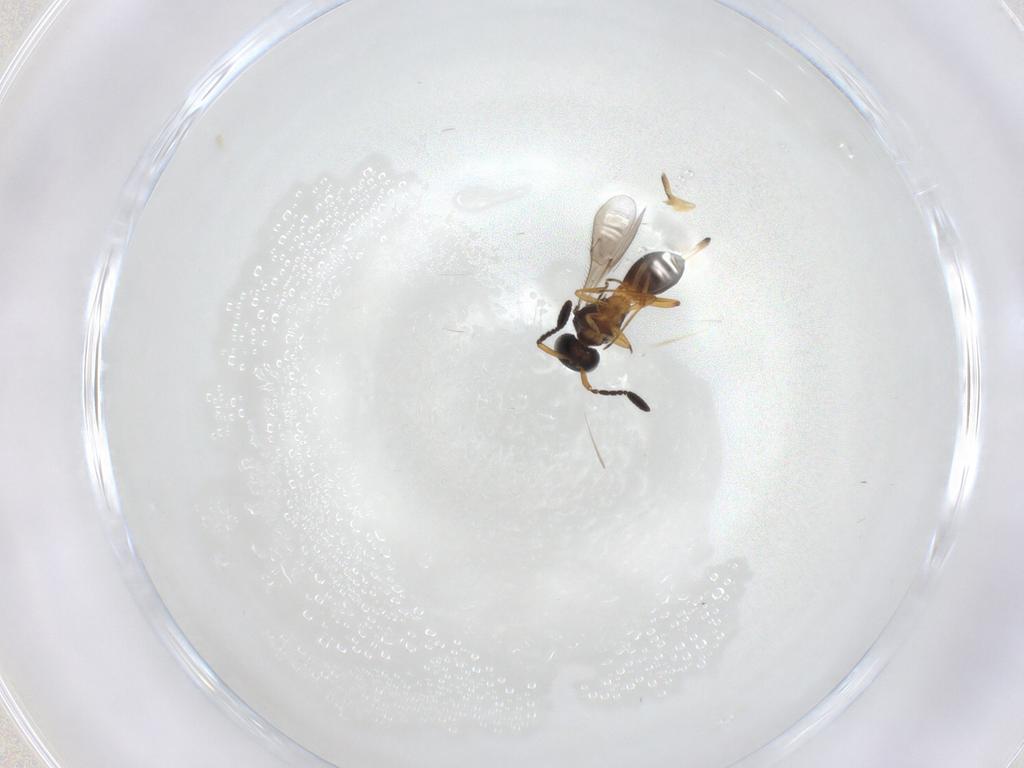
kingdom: Animalia
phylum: Arthropoda
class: Insecta
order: Hymenoptera
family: Scelionidae
